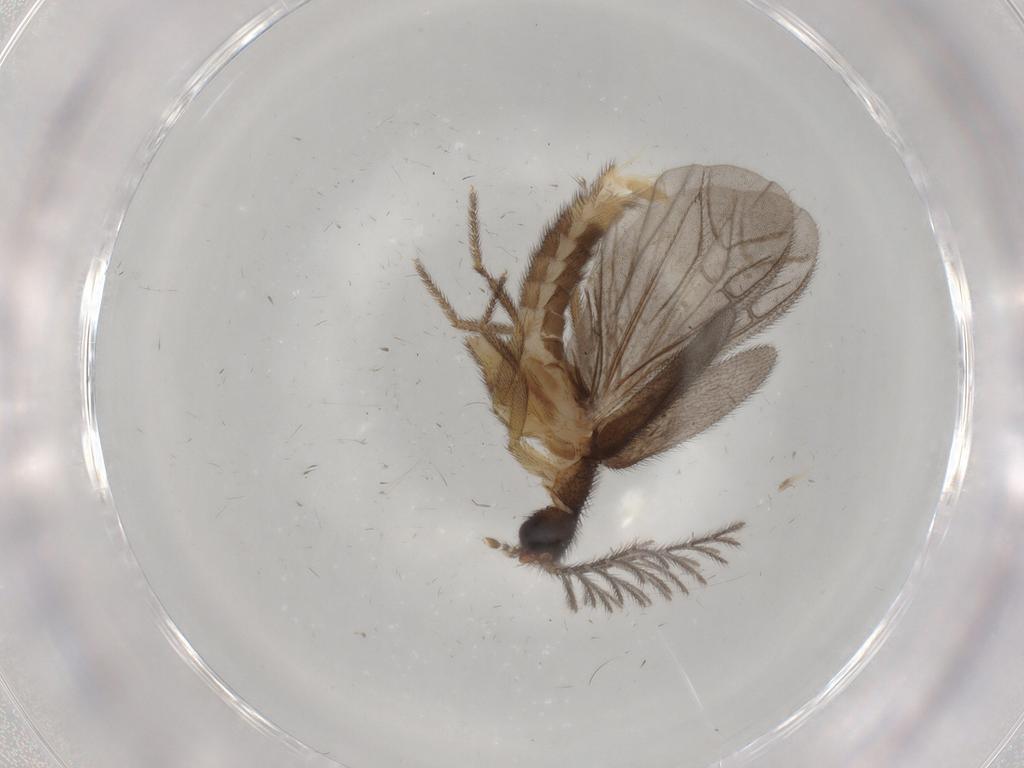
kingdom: Animalia
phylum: Arthropoda
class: Insecta
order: Coleoptera
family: Phengodidae
